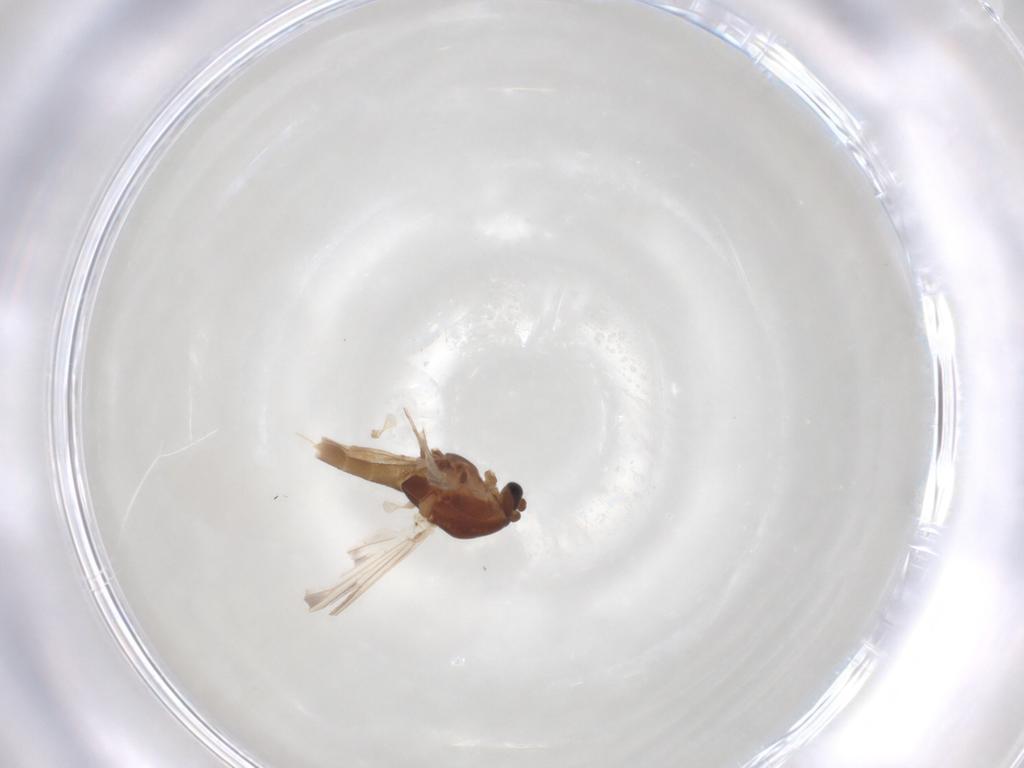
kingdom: Animalia
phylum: Arthropoda
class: Insecta
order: Diptera
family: Chironomidae
